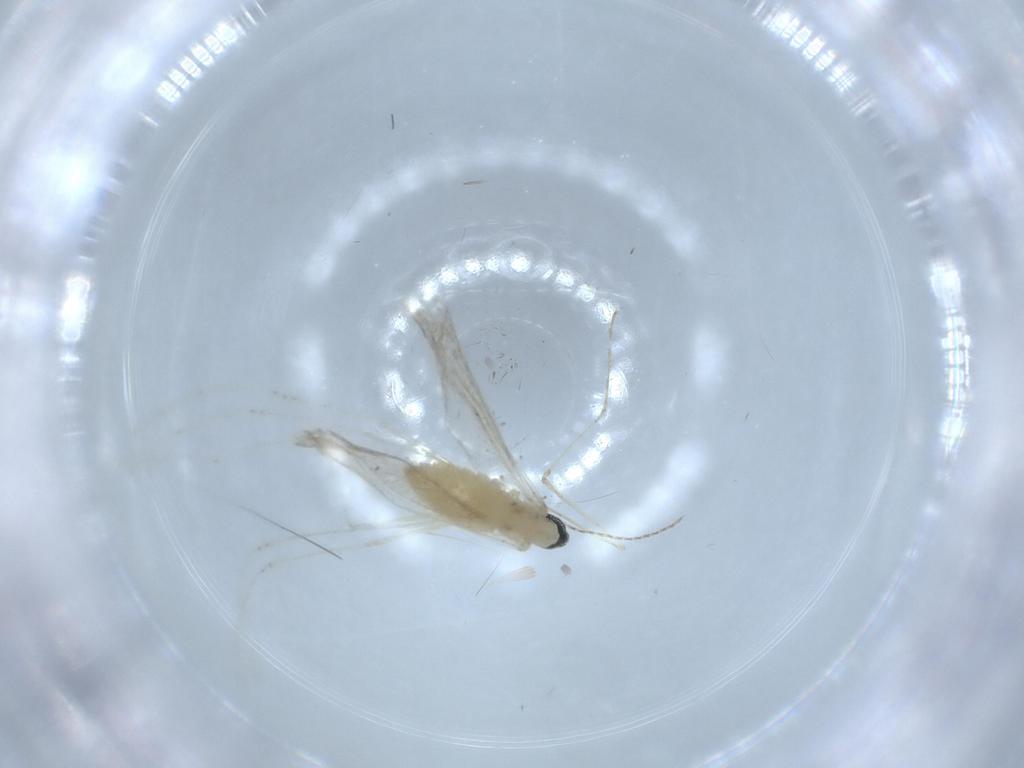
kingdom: Animalia
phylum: Arthropoda
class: Insecta
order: Diptera
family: Cecidomyiidae
